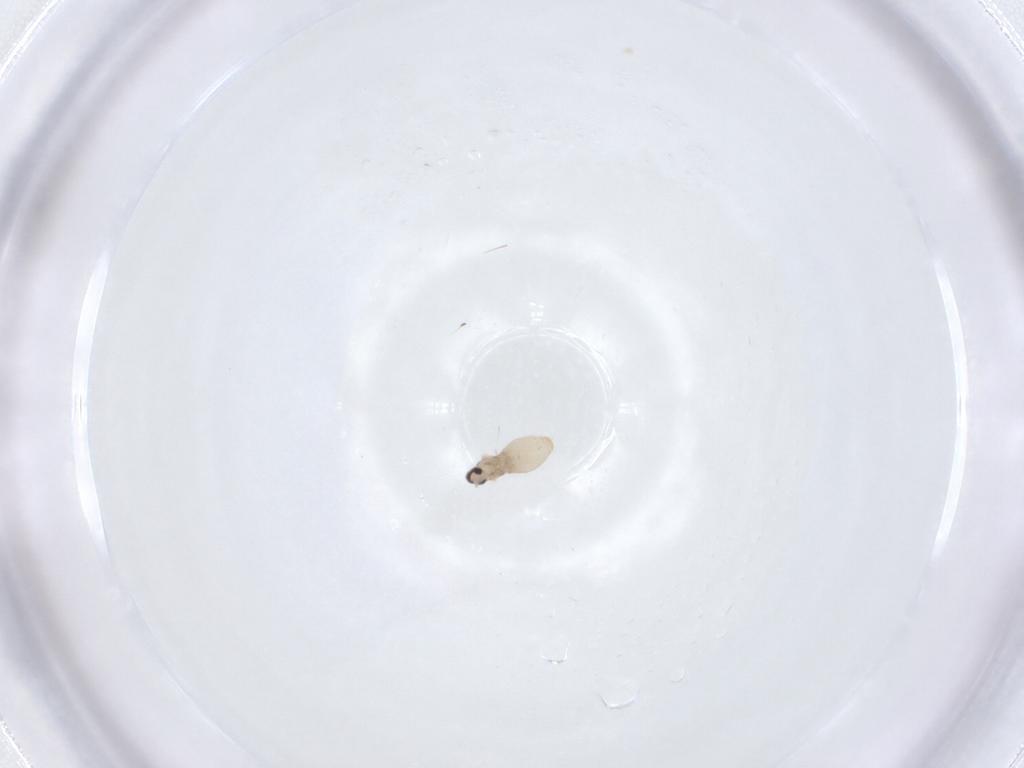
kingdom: Animalia
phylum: Arthropoda
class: Insecta
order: Diptera
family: Cecidomyiidae
